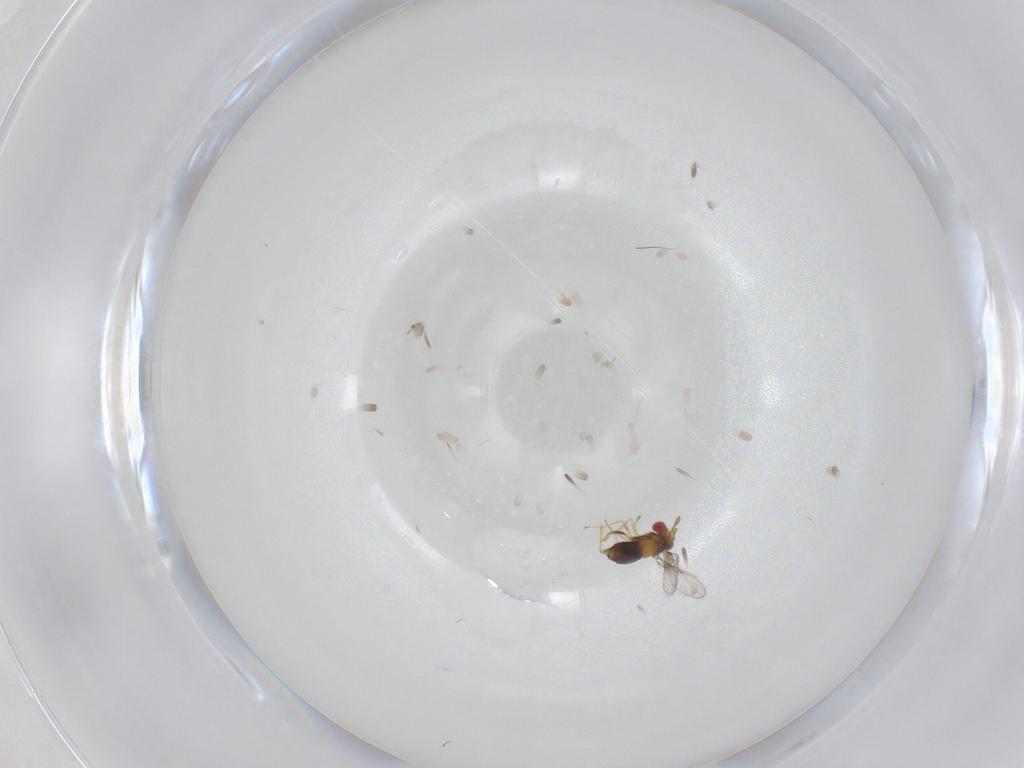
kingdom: Animalia
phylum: Arthropoda
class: Insecta
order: Hymenoptera
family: Trichogrammatidae
